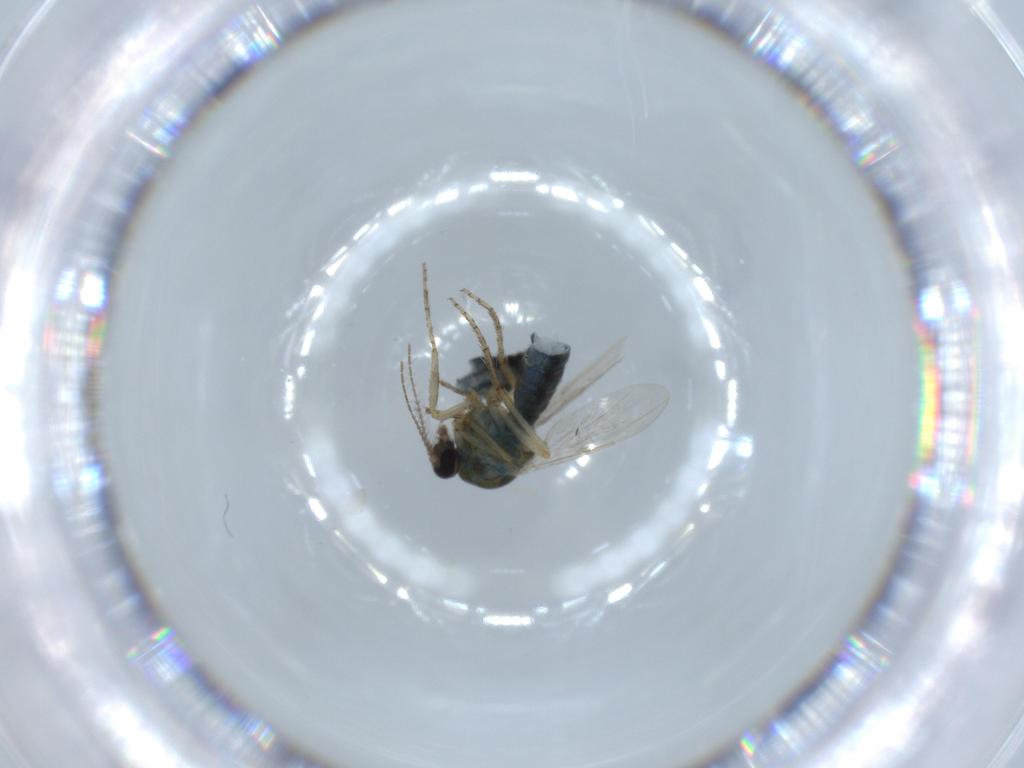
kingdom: Animalia
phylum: Arthropoda
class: Insecta
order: Diptera
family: Ceratopogonidae
